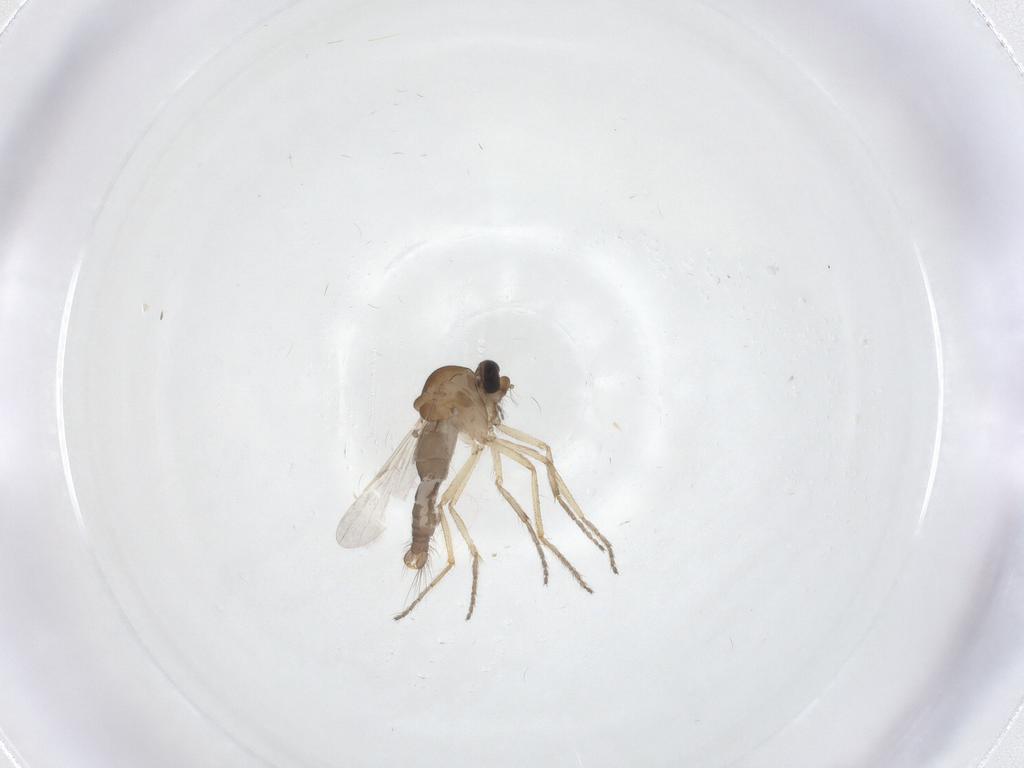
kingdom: Animalia
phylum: Arthropoda
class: Insecta
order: Diptera
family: Ceratopogonidae
